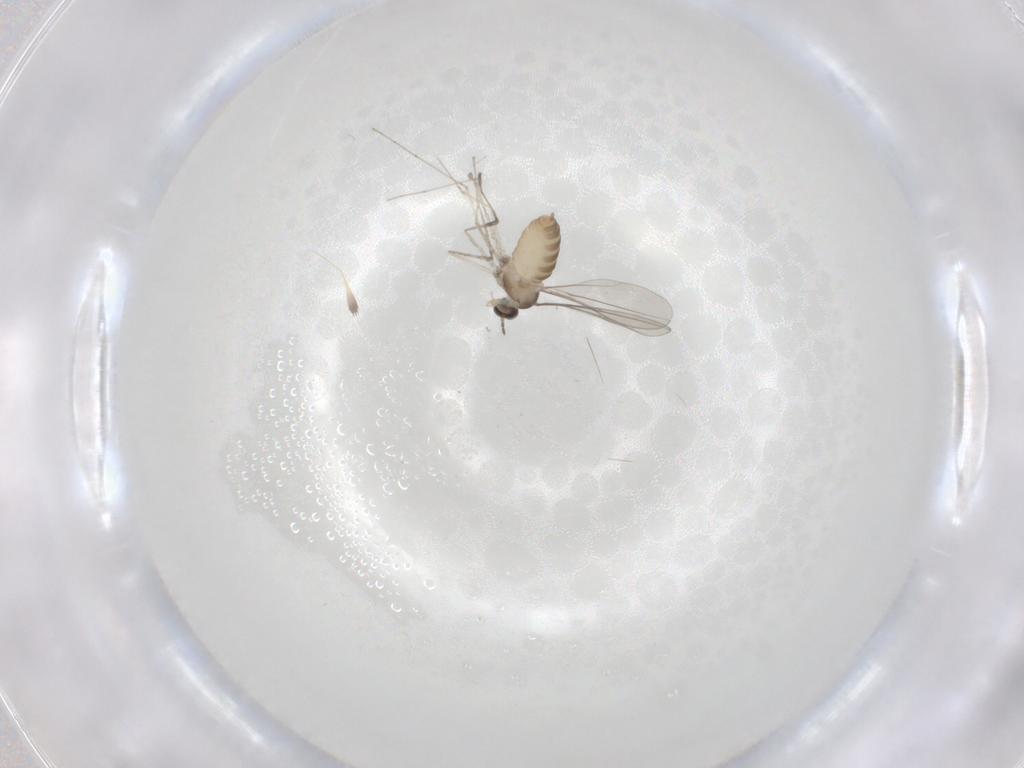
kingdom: Animalia
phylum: Arthropoda
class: Insecta
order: Diptera
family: Cecidomyiidae
